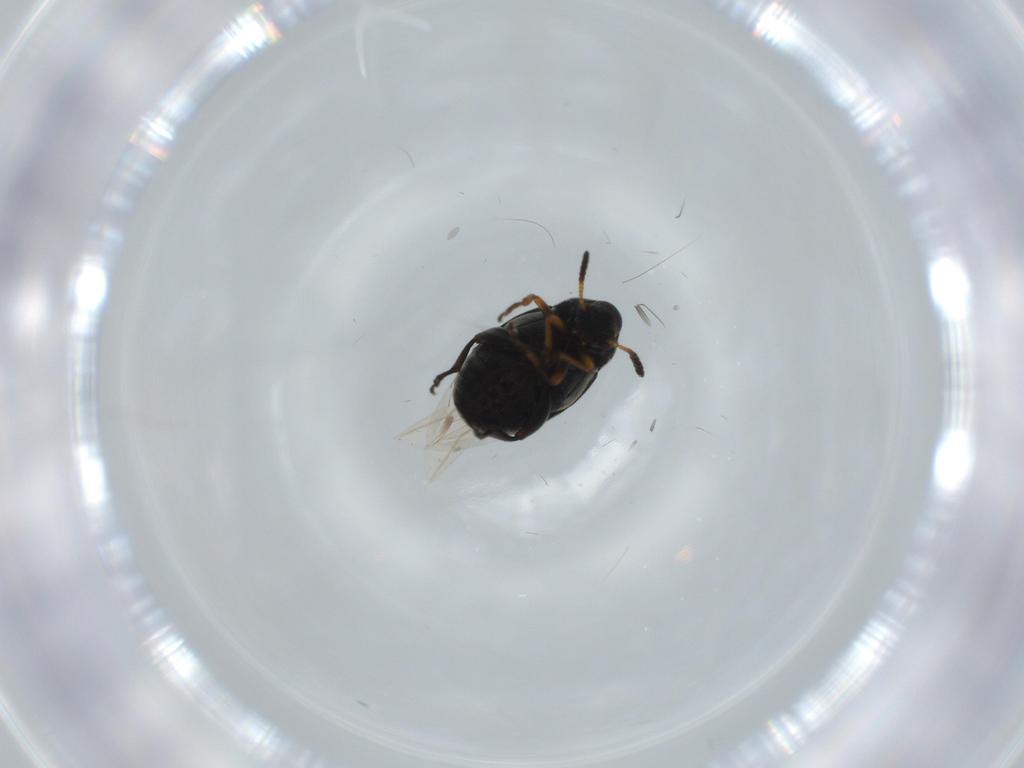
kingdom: Animalia
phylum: Arthropoda
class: Insecta
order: Coleoptera
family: Chrysomelidae
